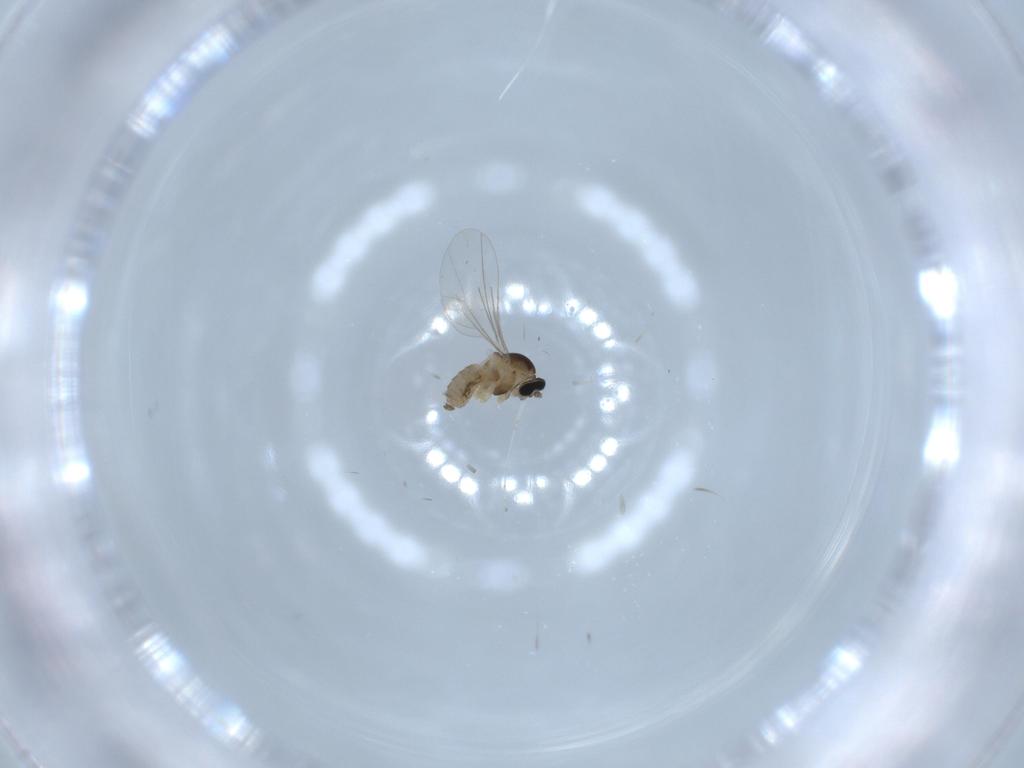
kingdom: Animalia
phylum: Arthropoda
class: Insecta
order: Diptera
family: Cecidomyiidae
